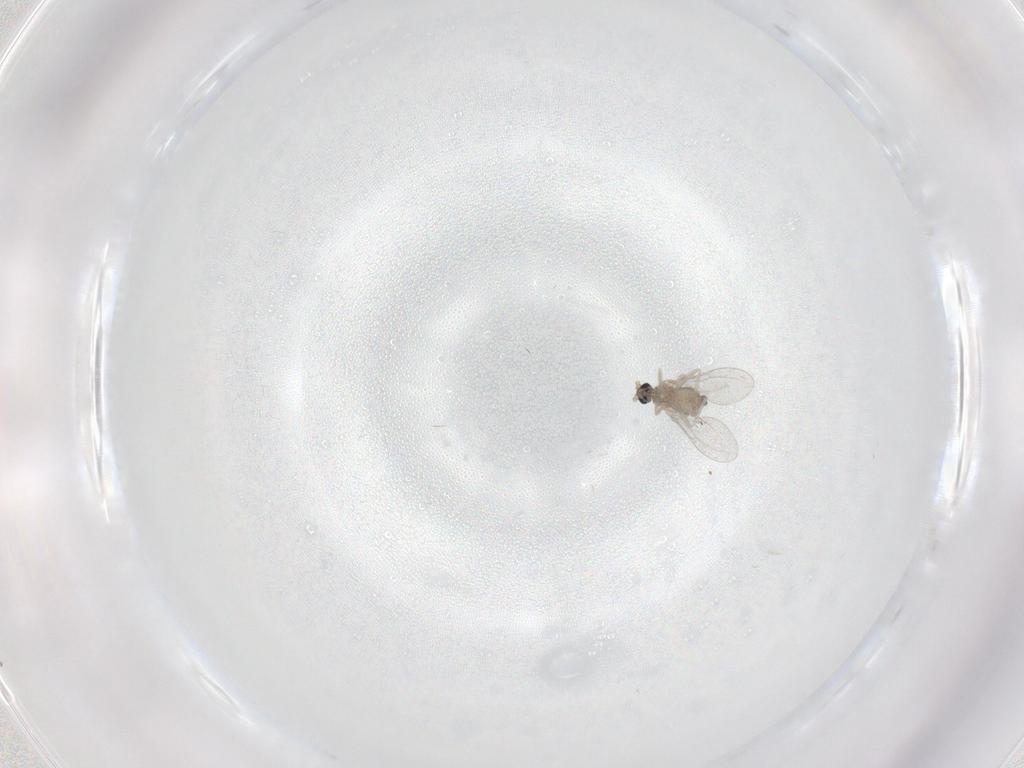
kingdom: Animalia
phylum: Arthropoda
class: Insecta
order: Diptera
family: Cecidomyiidae
